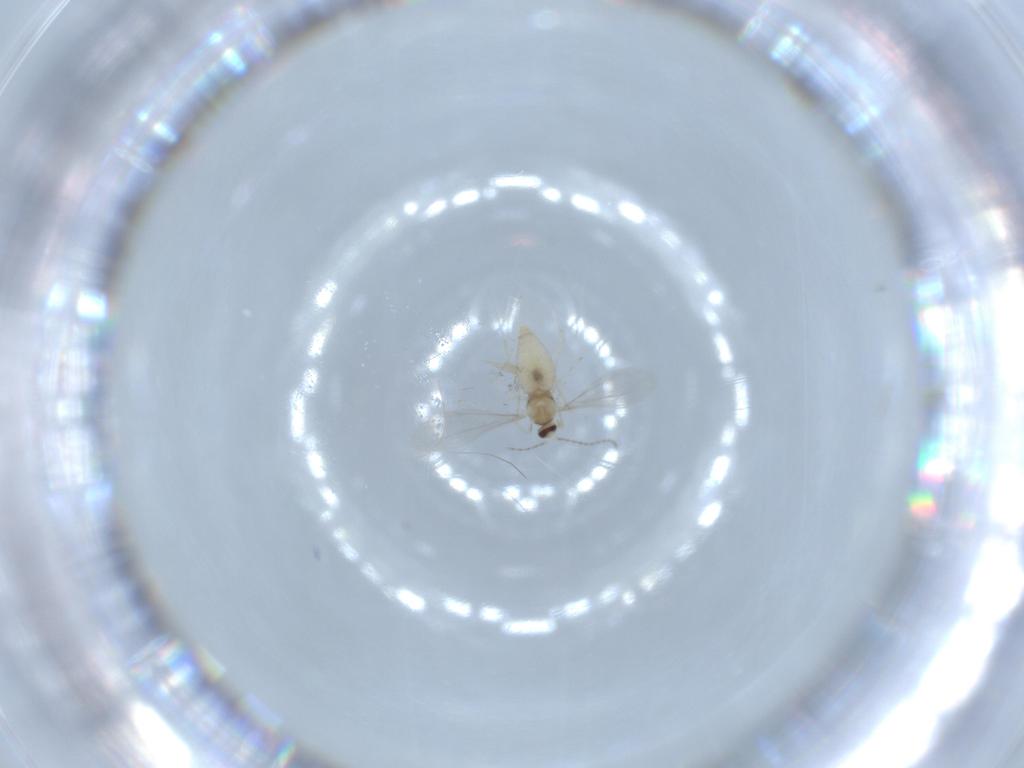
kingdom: Animalia
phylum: Arthropoda
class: Insecta
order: Diptera
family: Cecidomyiidae
